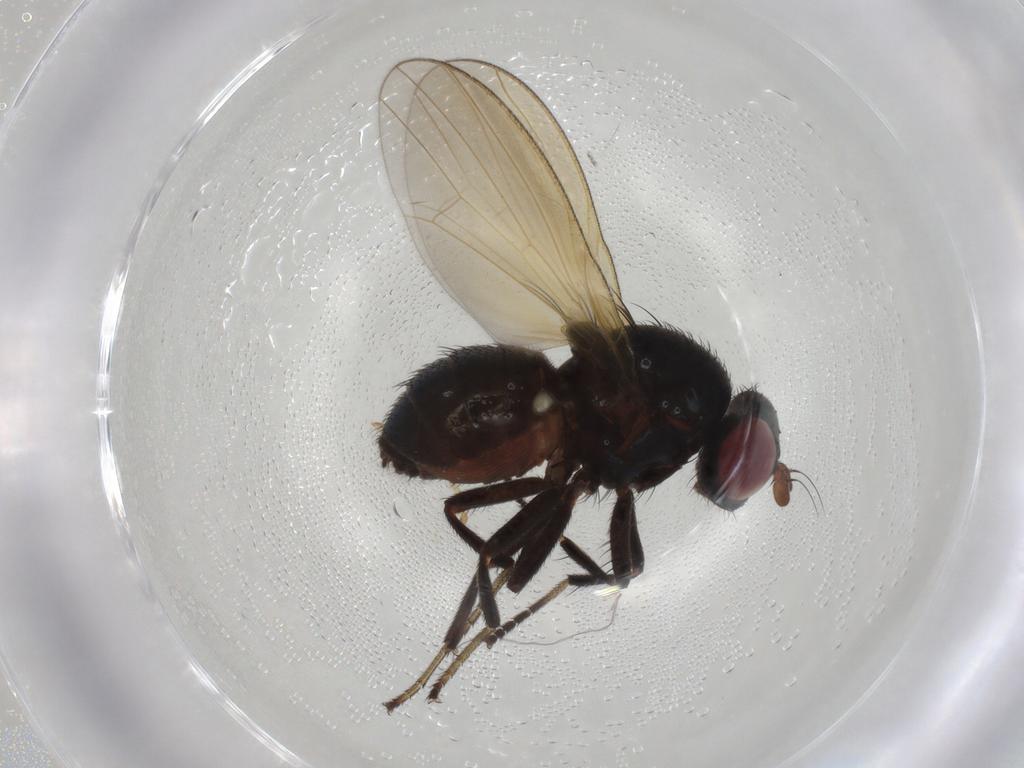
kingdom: Animalia
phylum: Arthropoda
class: Insecta
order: Neuroptera
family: Hemerobiidae
